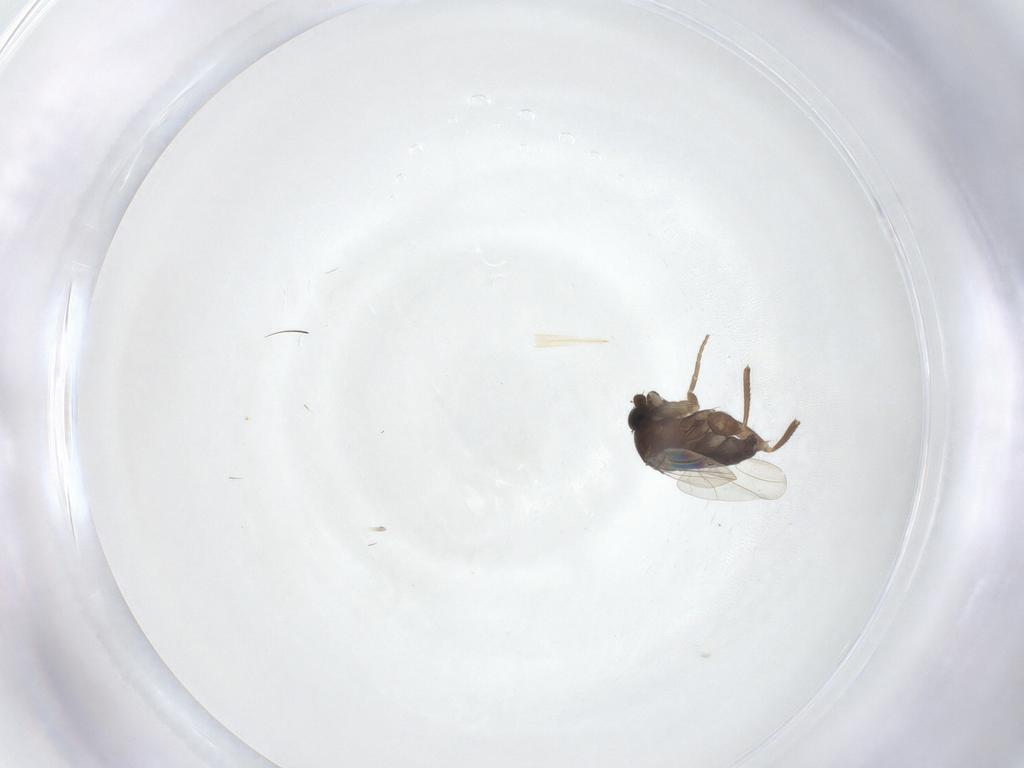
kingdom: Animalia
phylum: Arthropoda
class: Insecta
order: Diptera
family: Phoridae
